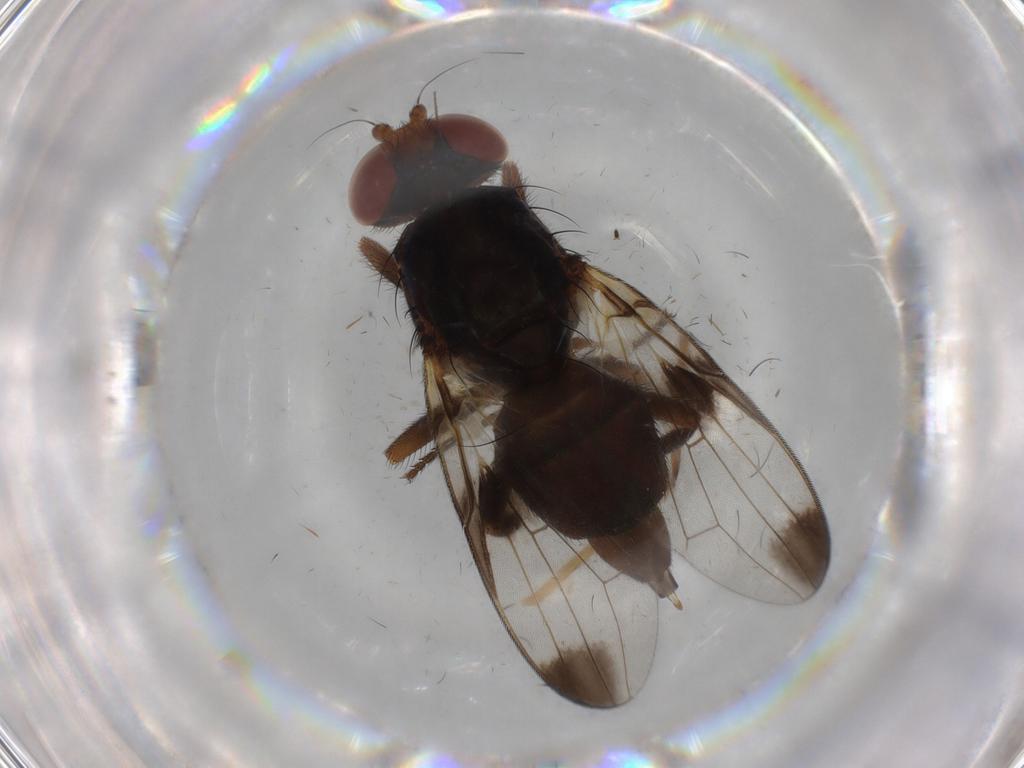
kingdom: Animalia
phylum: Arthropoda
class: Insecta
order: Diptera
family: Ulidiidae
